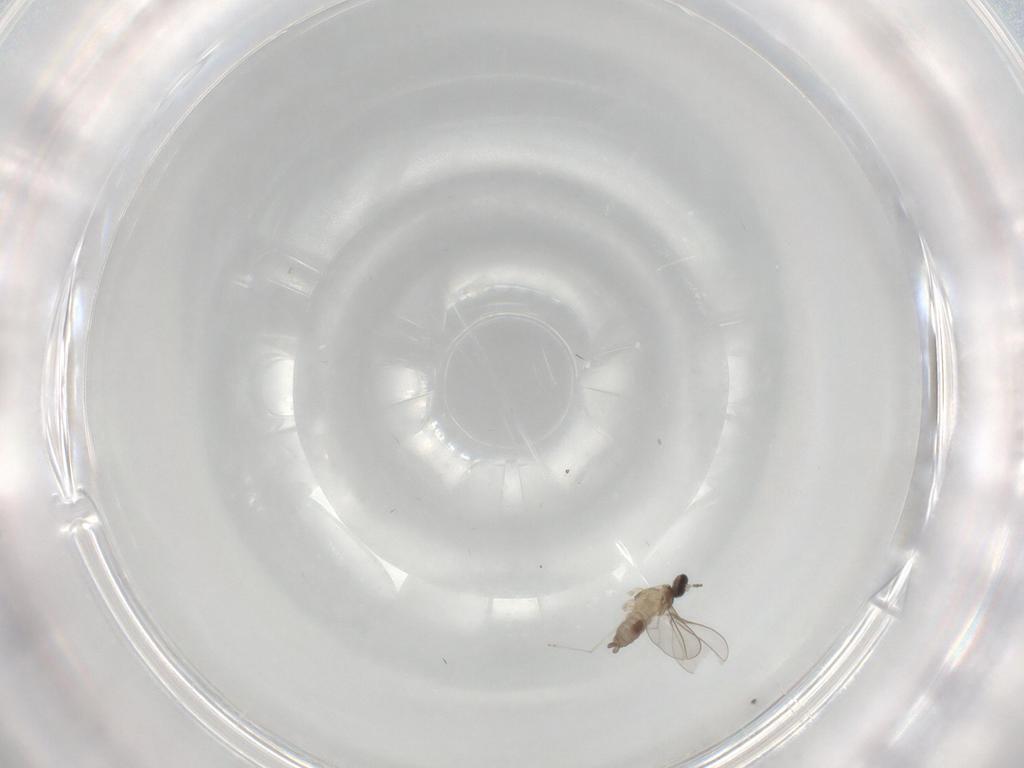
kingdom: Animalia
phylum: Arthropoda
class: Insecta
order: Diptera
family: Cecidomyiidae
